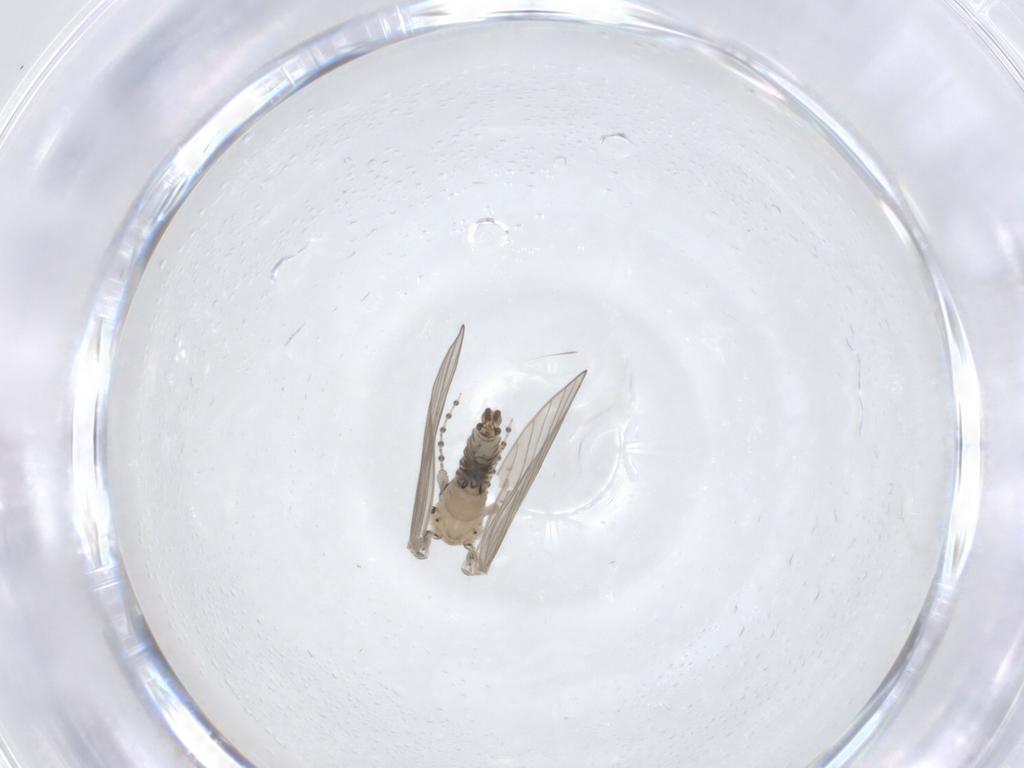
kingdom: Animalia
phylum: Arthropoda
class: Insecta
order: Diptera
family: Psychodidae
